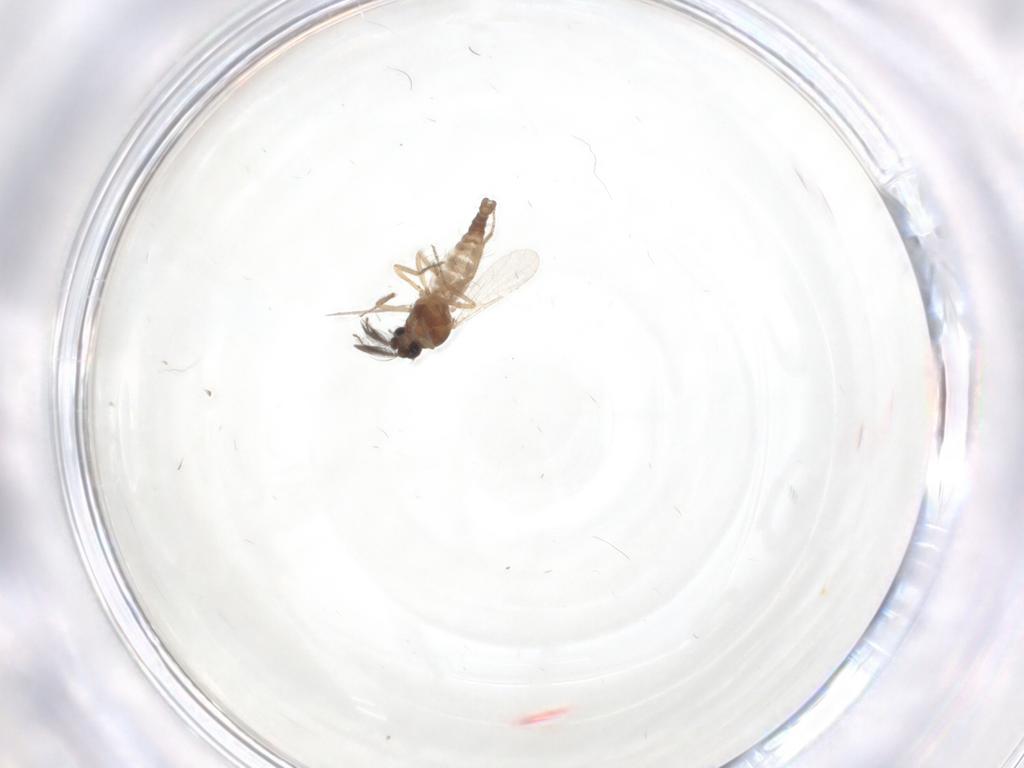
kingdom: Animalia
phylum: Arthropoda
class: Insecta
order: Diptera
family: Ceratopogonidae
